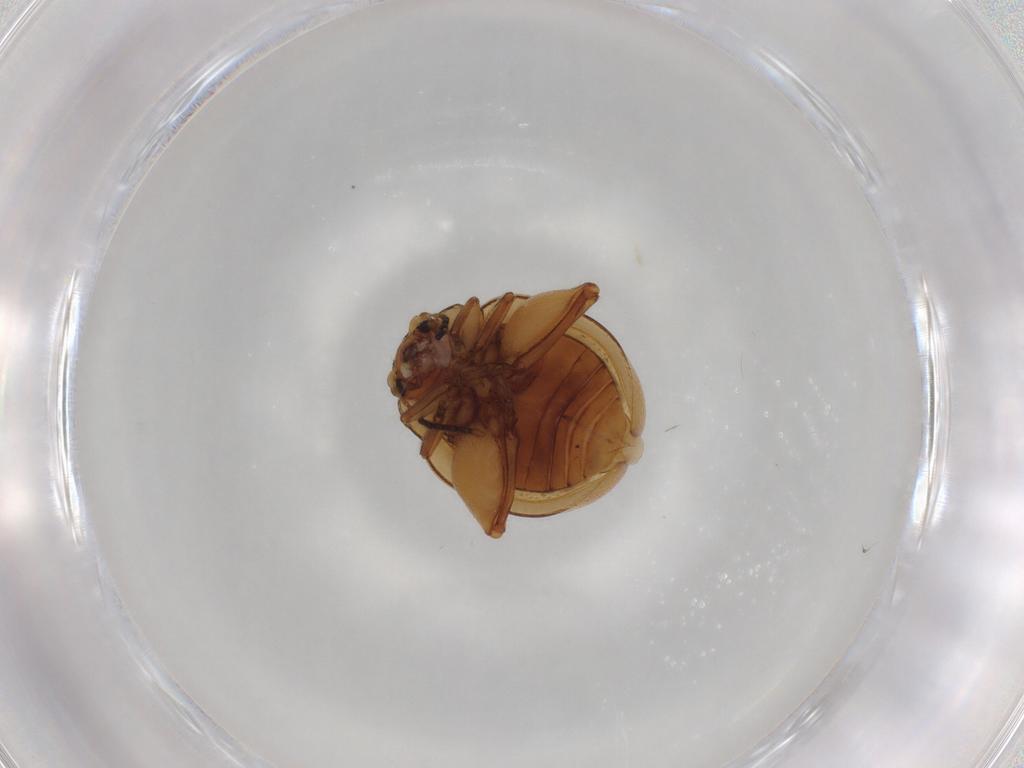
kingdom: Animalia
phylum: Arthropoda
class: Insecta
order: Coleoptera
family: Chrysomelidae
